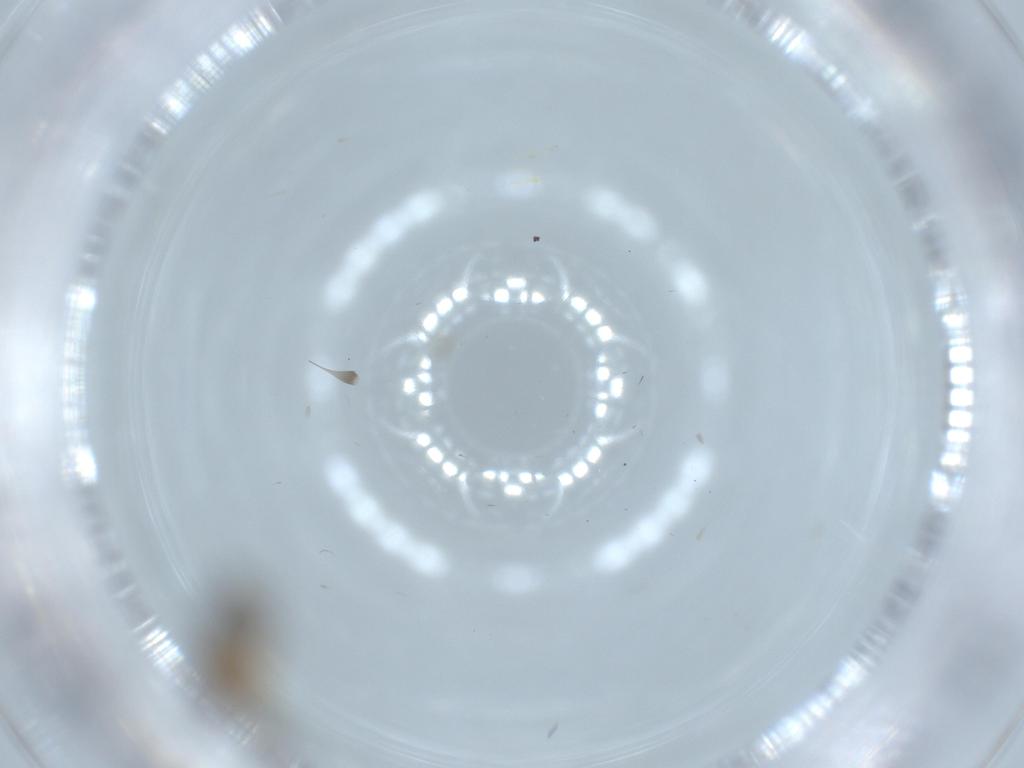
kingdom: Animalia
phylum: Arthropoda
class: Insecta
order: Diptera
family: Cecidomyiidae
